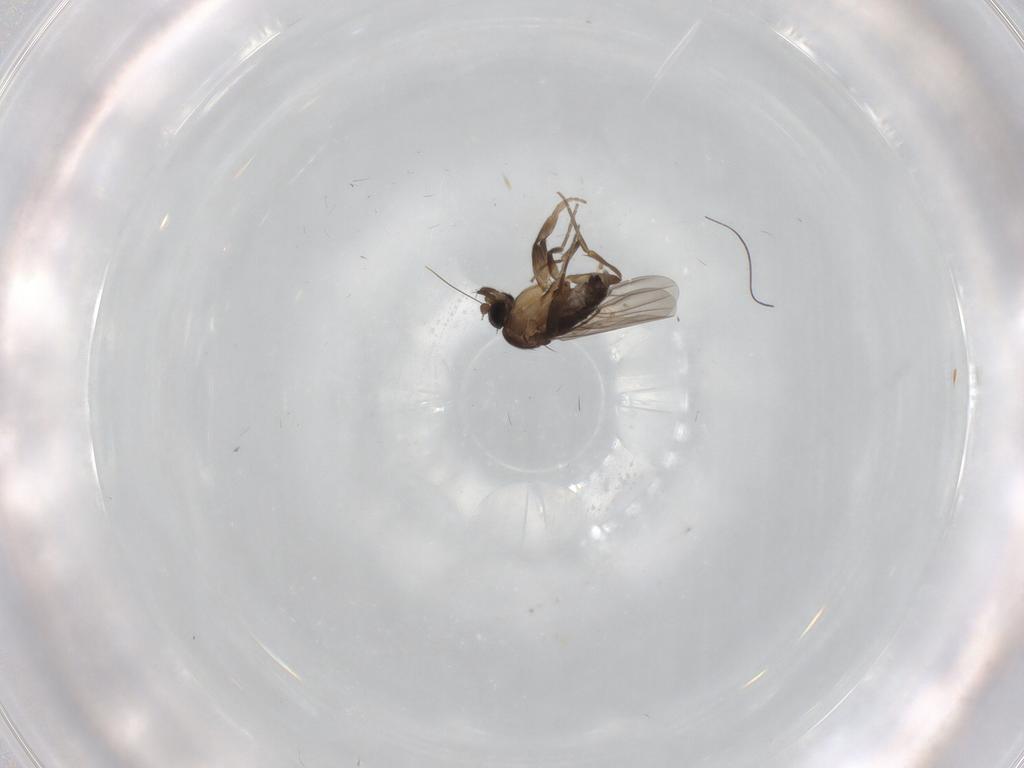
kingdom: Animalia
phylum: Arthropoda
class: Insecta
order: Diptera
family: Phoridae
